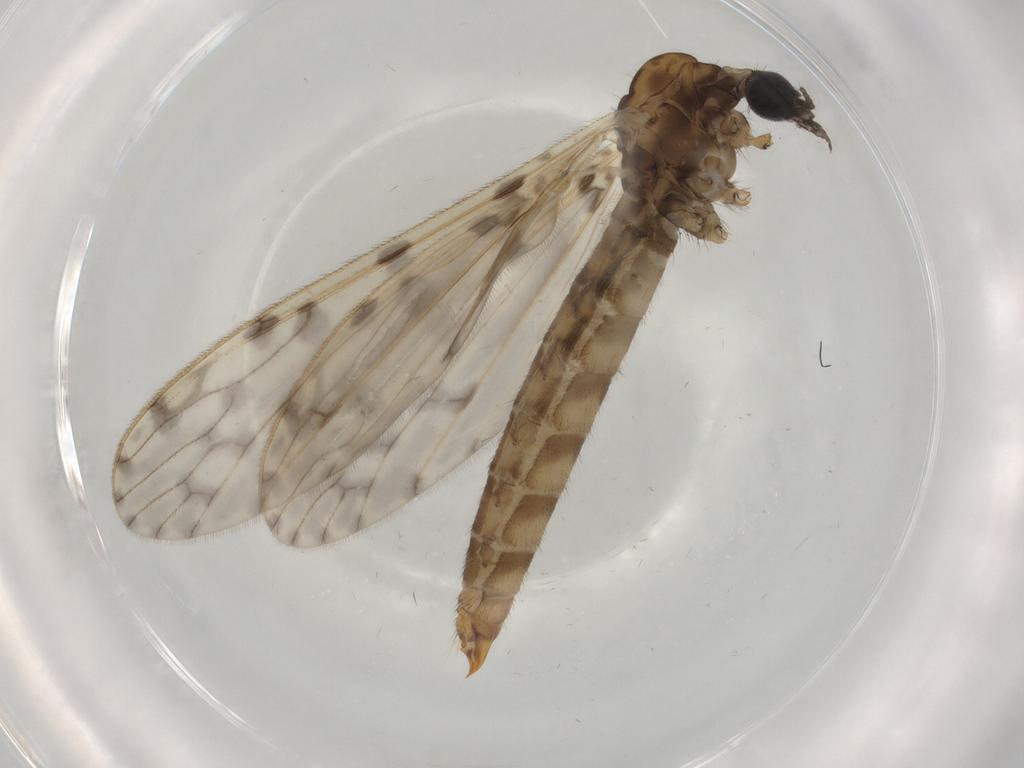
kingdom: Animalia
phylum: Arthropoda
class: Insecta
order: Diptera
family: Limoniidae
